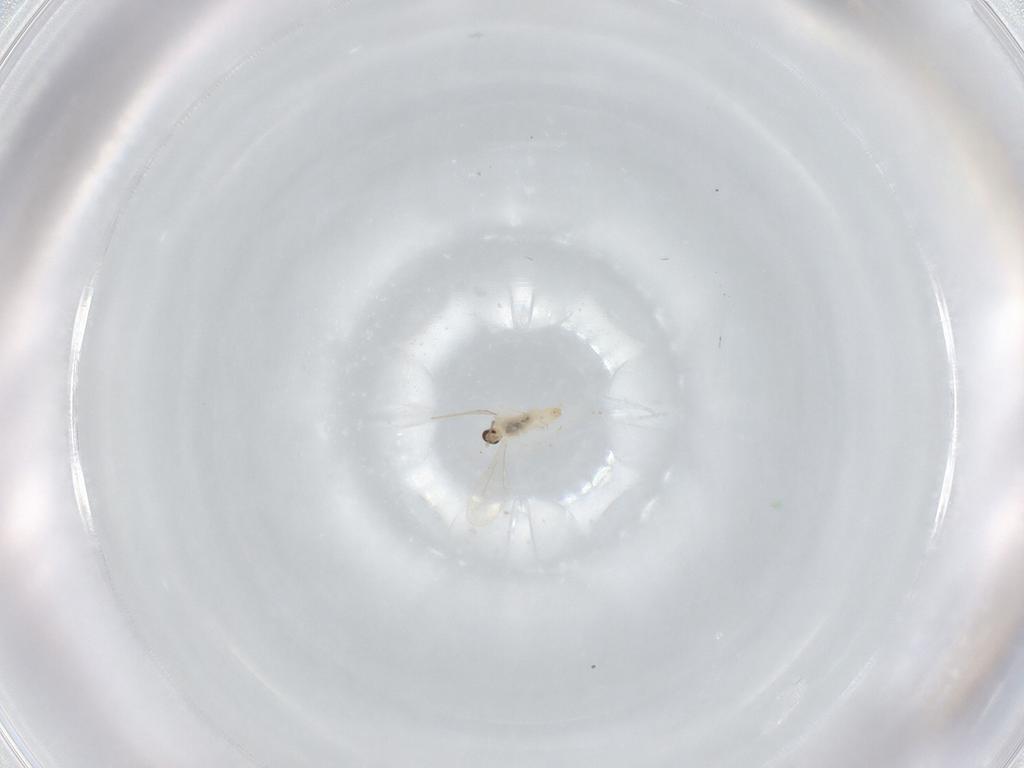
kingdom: Animalia
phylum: Arthropoda
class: Insecta
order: Diptera
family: Cecidomyiidae
